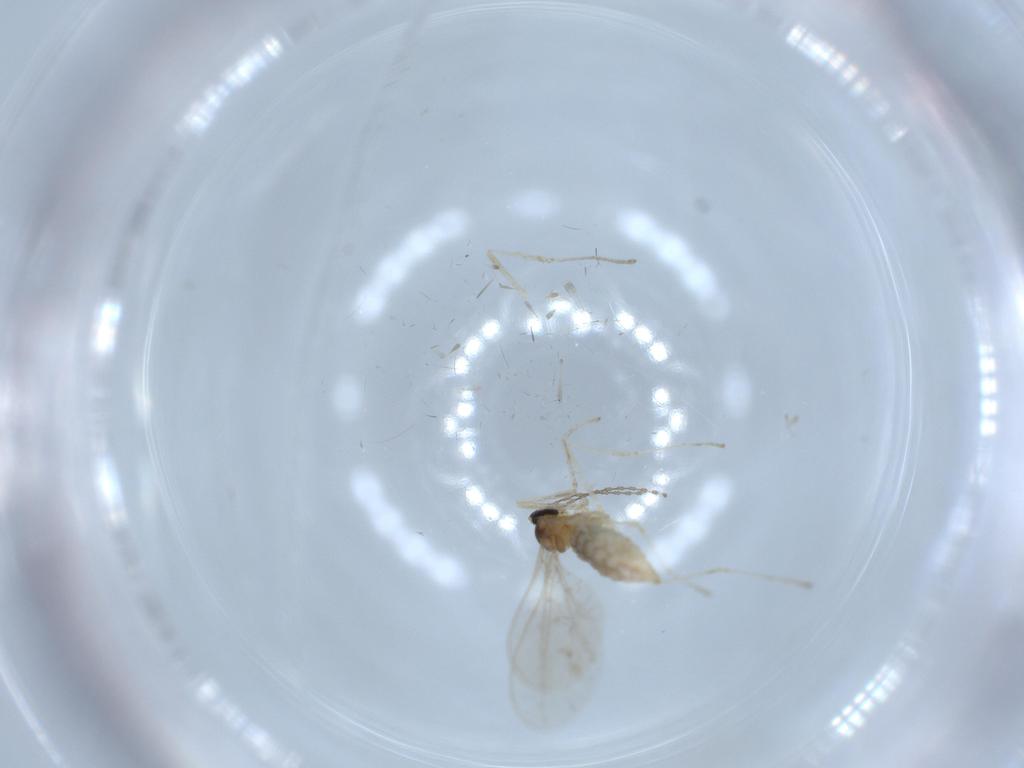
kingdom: Animalia
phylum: Arthropoda
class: Insecta
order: Diptera
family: Sciaridae
